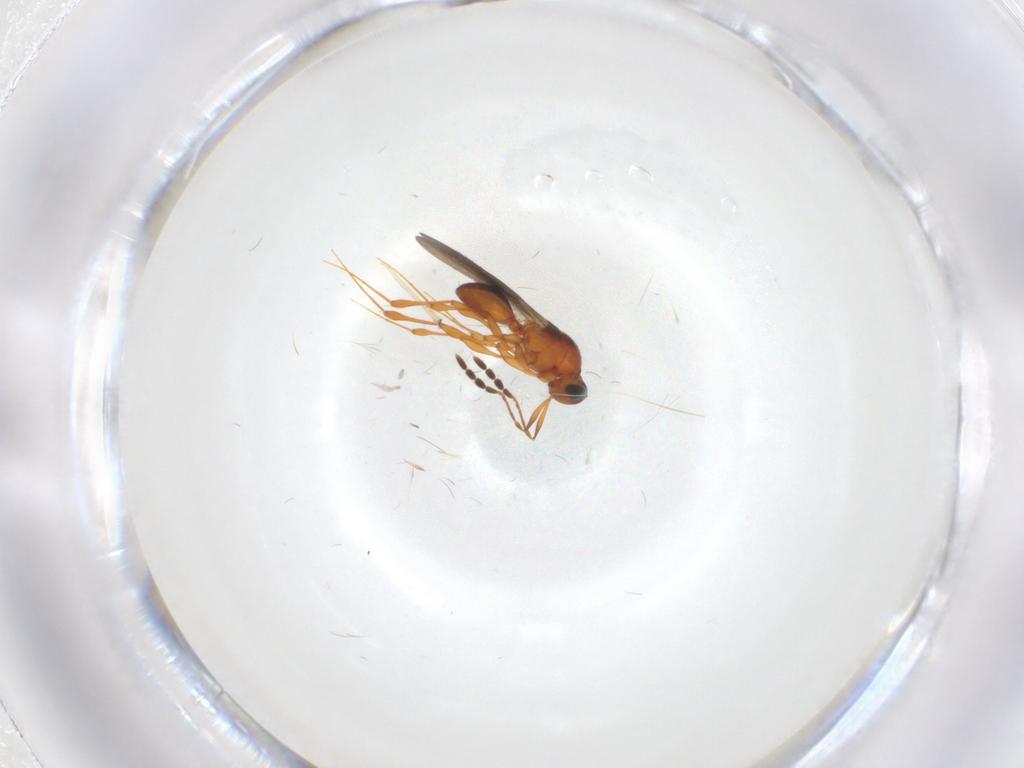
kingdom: Animalia
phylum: Arthropoda
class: Insecta
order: Hymenoptera
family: Platygastridae
